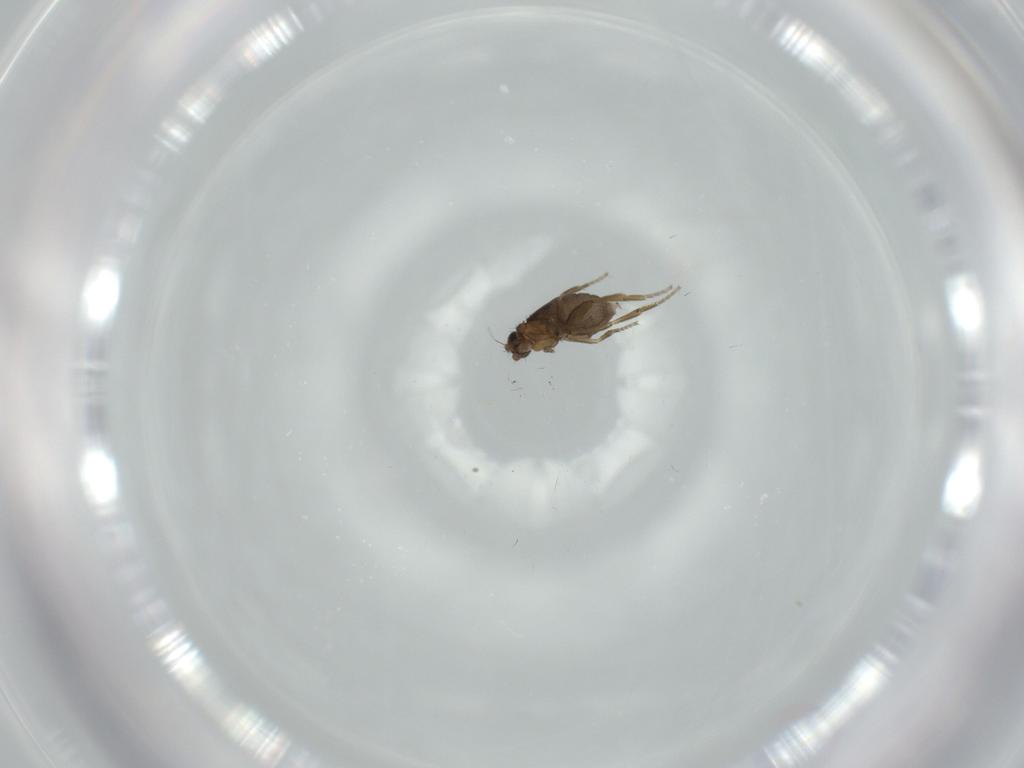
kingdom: Animalia
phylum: Arthropoda
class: Insecta
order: Diptera
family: Phoridae
